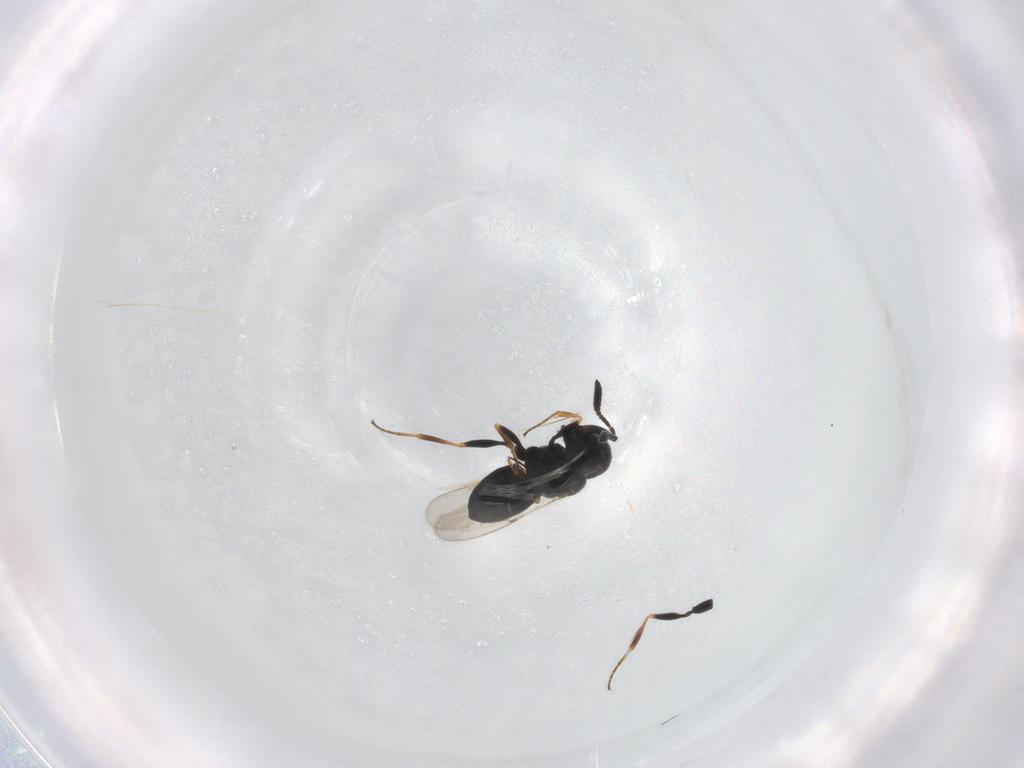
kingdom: Animalia
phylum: Arthropoda
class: Insecta
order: Hymenoptera
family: Scelionidae
